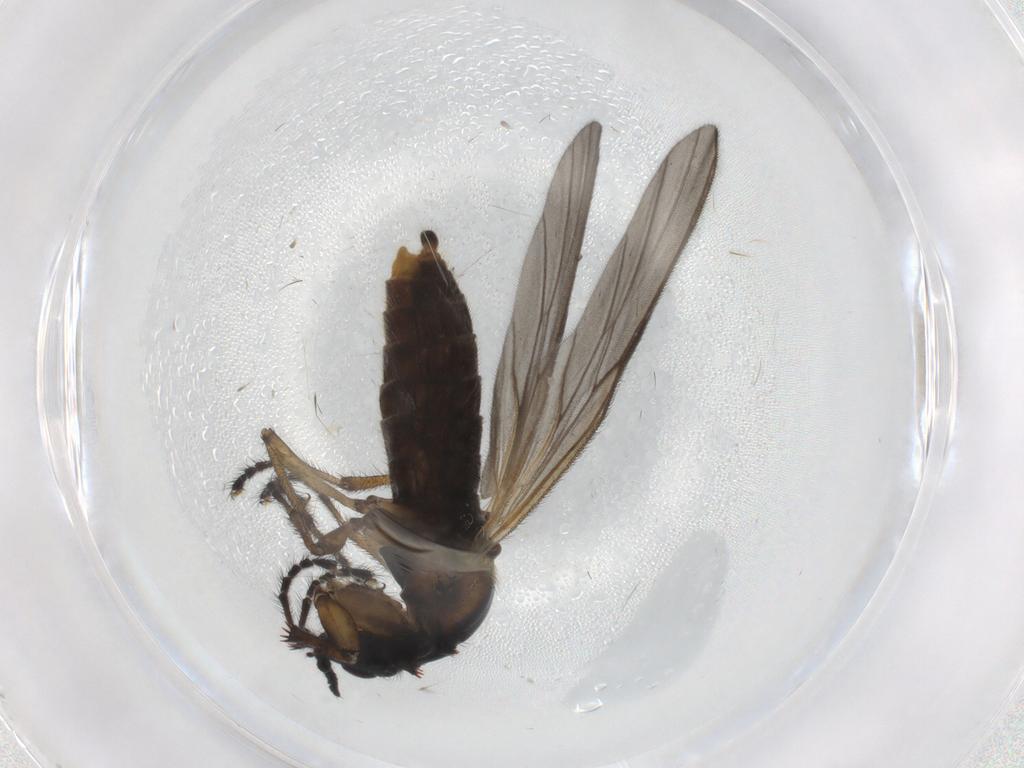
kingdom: Animalia
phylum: Arthropoda
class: Insecta
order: Diptera
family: Bibionidae
